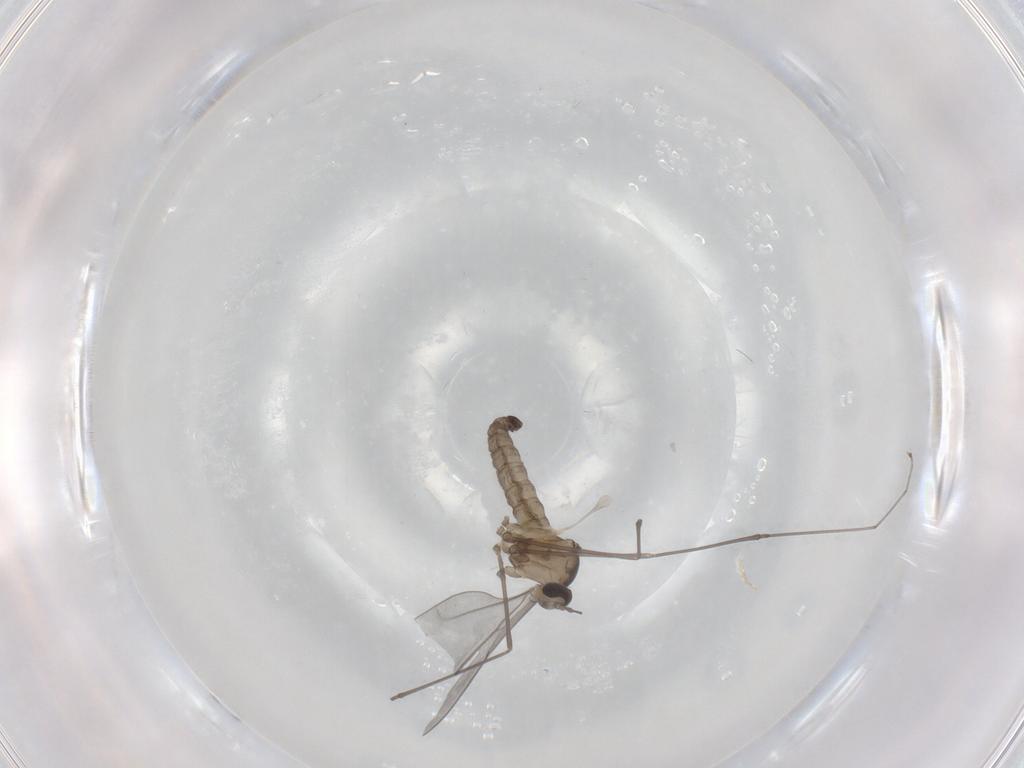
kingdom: Animalia
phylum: Arthropoda
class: Insecta
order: Diptera
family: Cecidomyiidae
